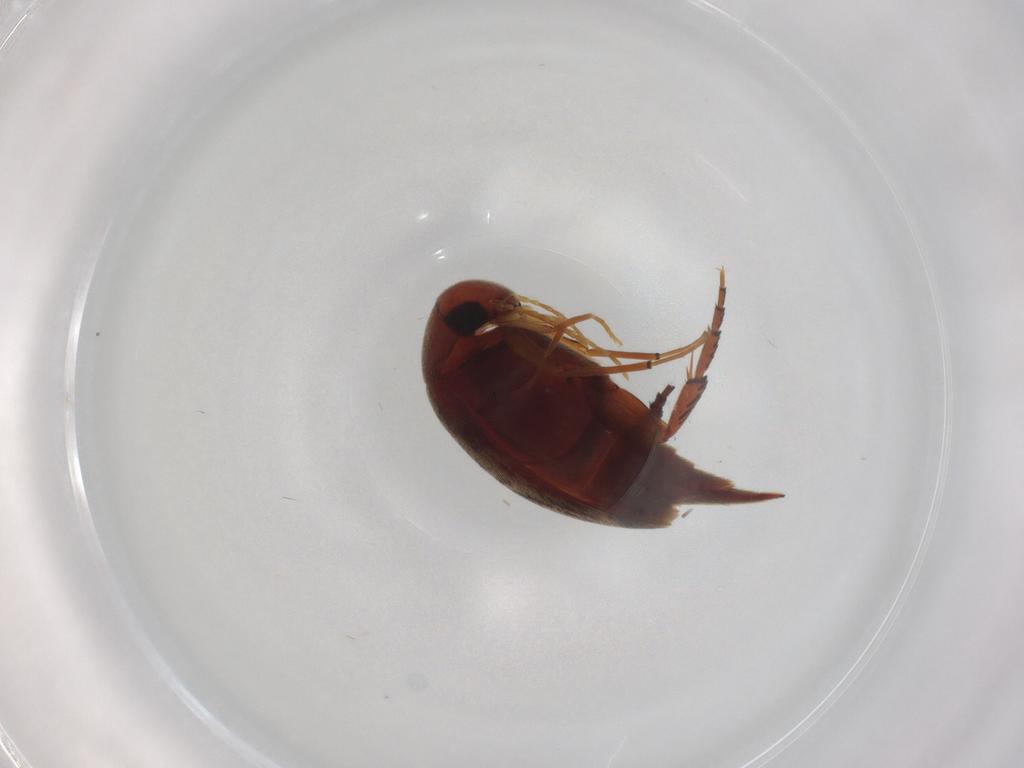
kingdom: Animalia
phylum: Arthropoda
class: Insecta
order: Coleoptera
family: Mordellidae
